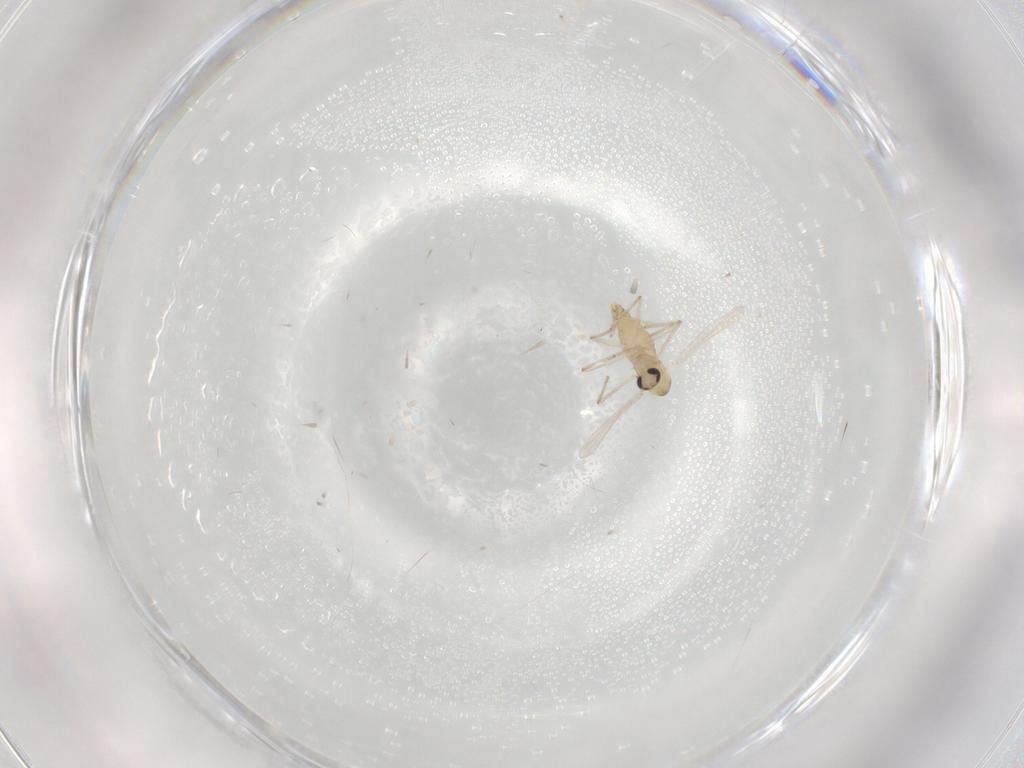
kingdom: Animalia
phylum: Arthropoda
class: Insecta
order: Diptera
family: Chironomidae
